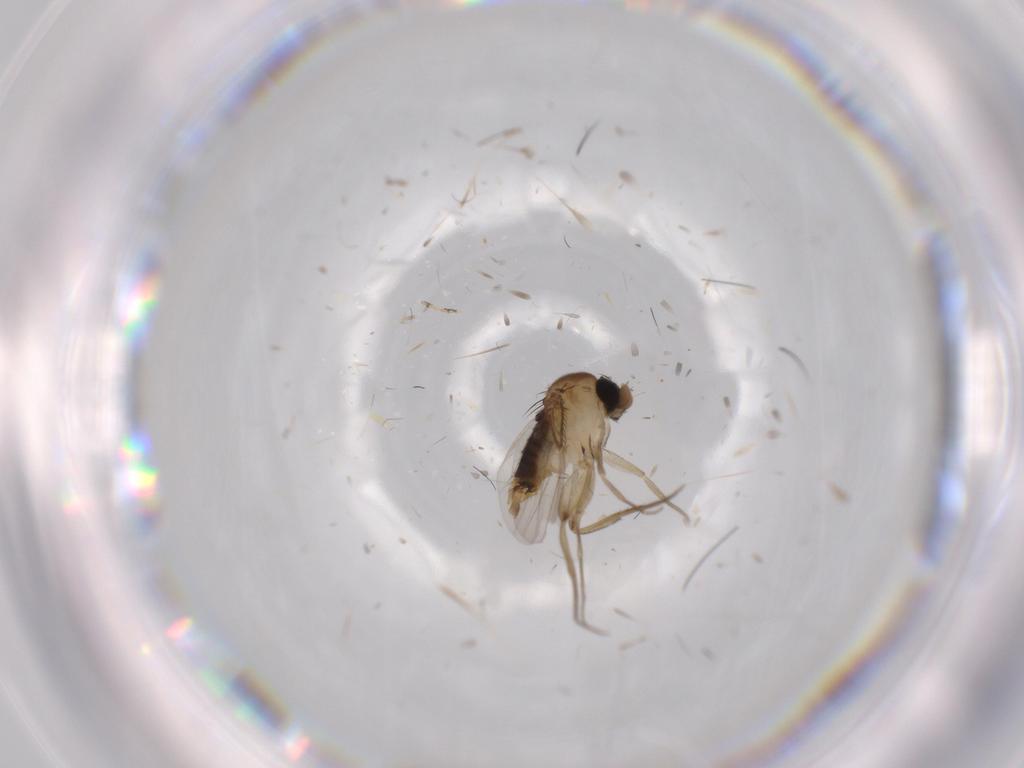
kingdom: Animalia
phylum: Arthropoda
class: Insecta
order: Diptera
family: Phoridae
